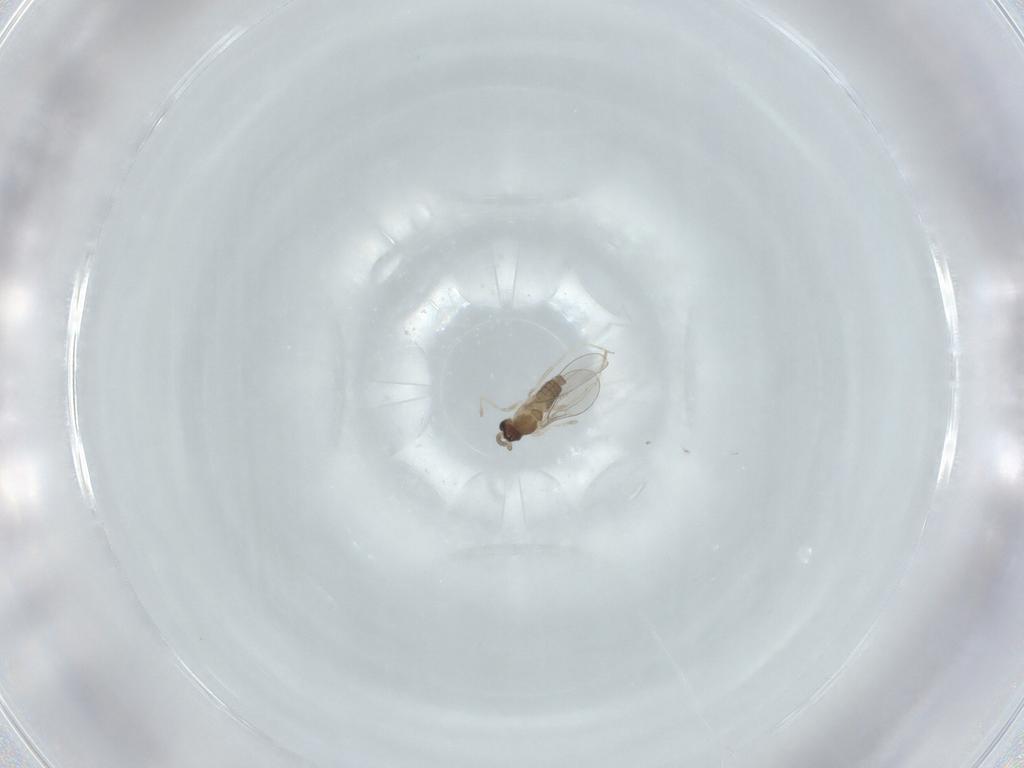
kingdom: Animalia
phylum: Arthropoda
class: Insecta
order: Diptera
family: Cecidomyiidae
